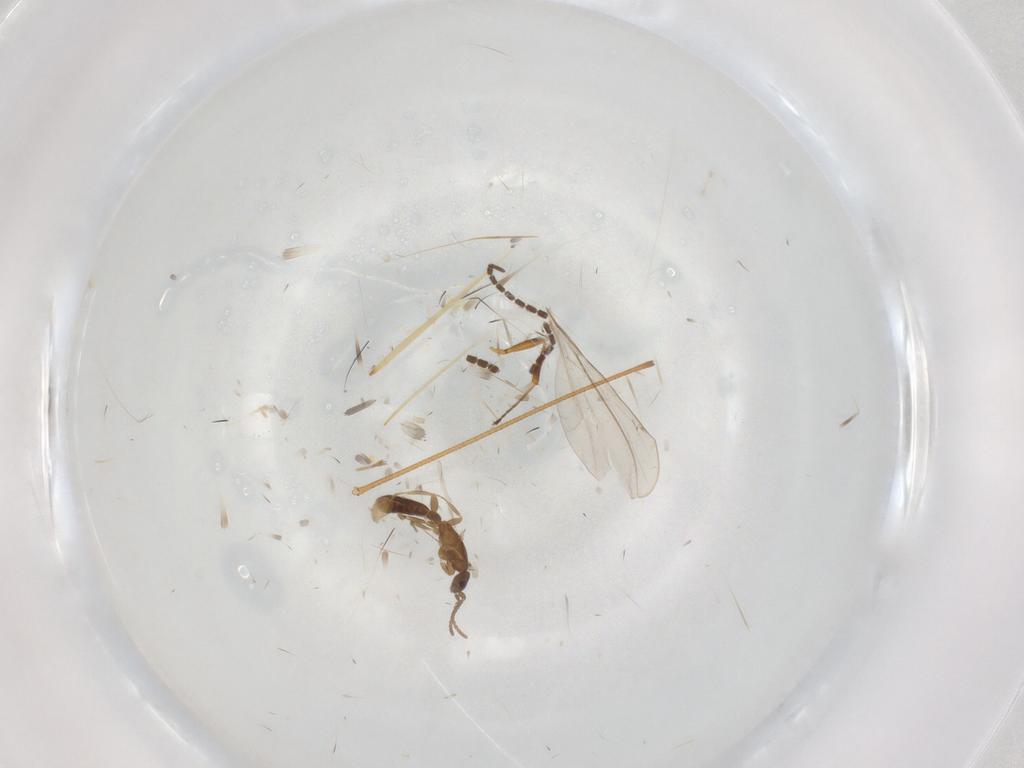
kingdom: Animalia
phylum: Arthropoda
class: Insecta
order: Hymenoptera
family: Formicidae
